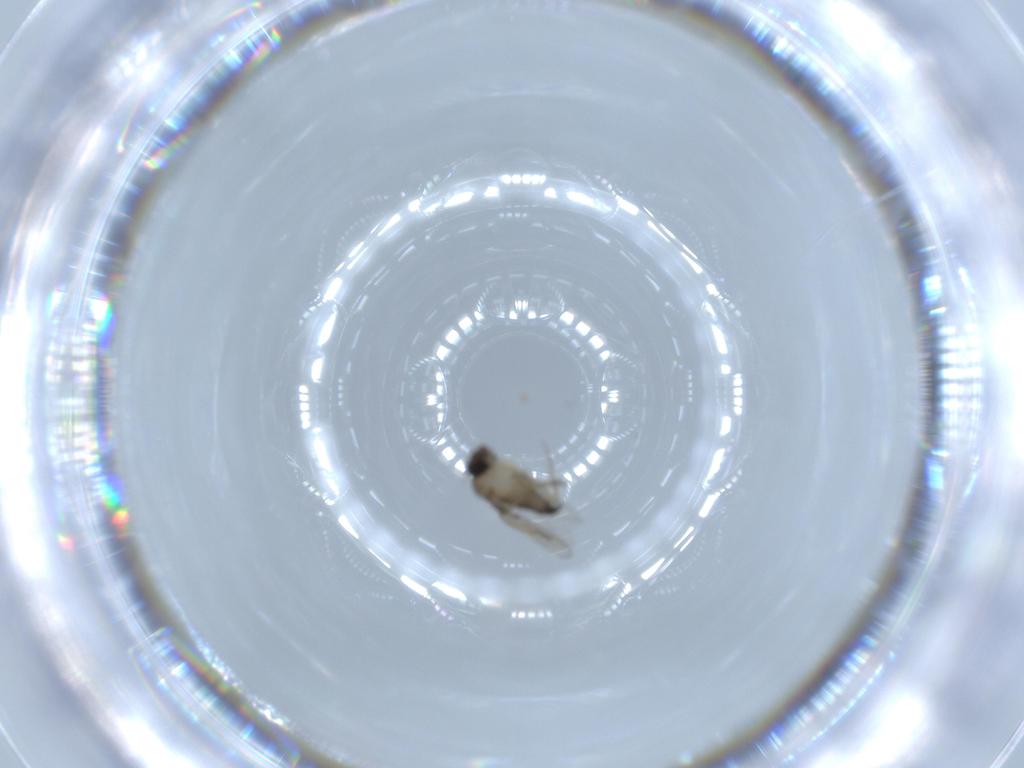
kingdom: Animalia
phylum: Arthropoda
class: Insecta
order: Diptera
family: Phoridae
